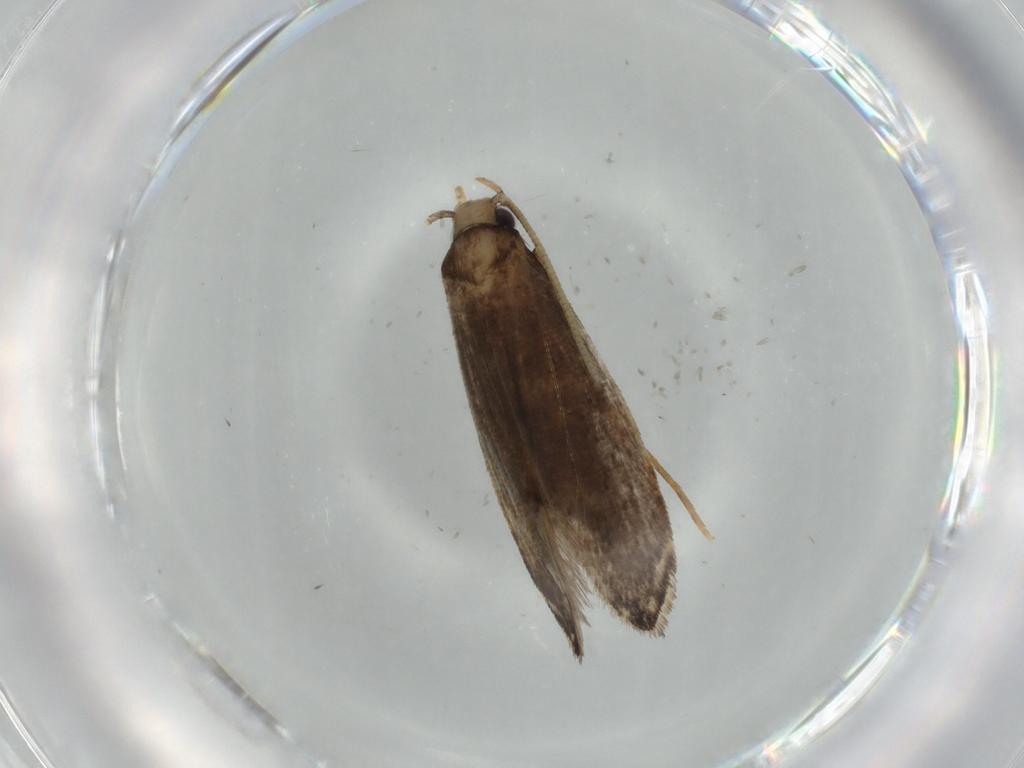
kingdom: Animalia
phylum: Arthropoda
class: Insecta
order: Lepidoptera
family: Tineidae
